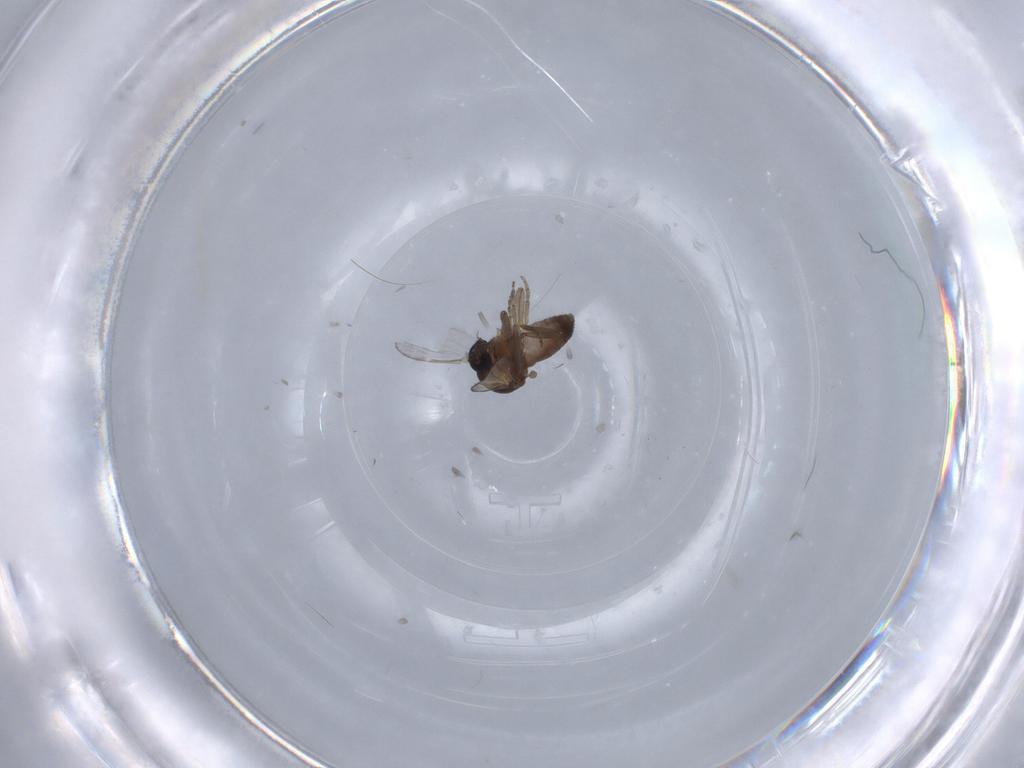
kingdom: Animalia
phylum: Arthropoda
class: Insecta
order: Diptera
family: Ceratopogonidae
